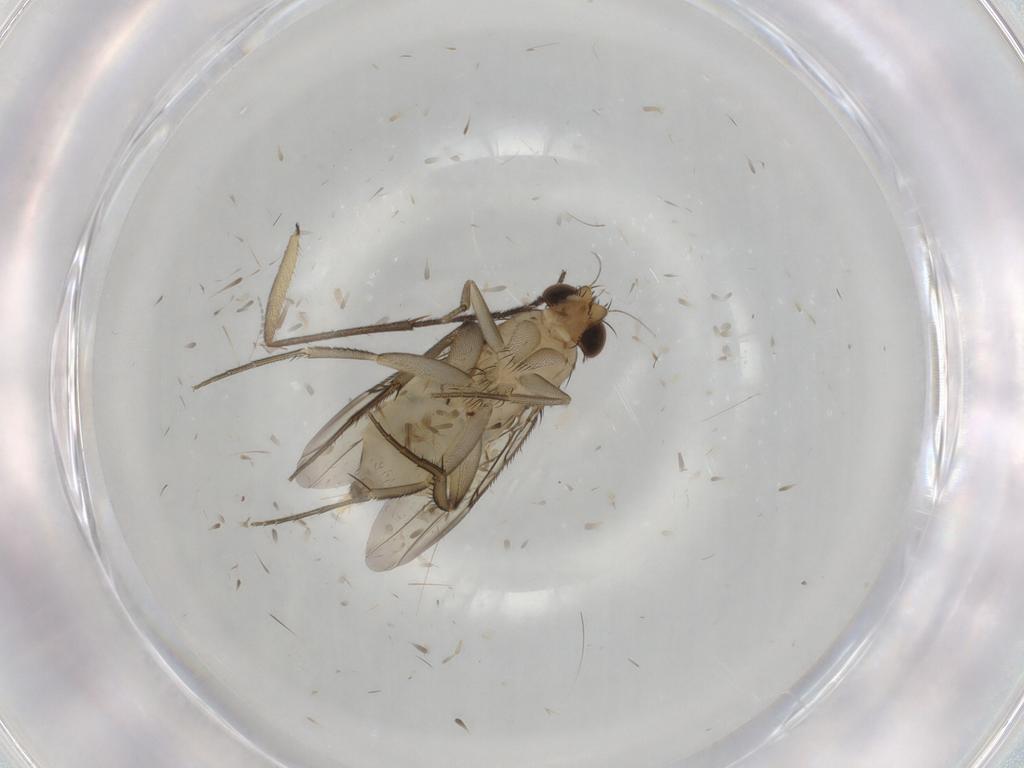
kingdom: Animalia
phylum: Arthropoda
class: Insecta
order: Diptera
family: Phoridae
